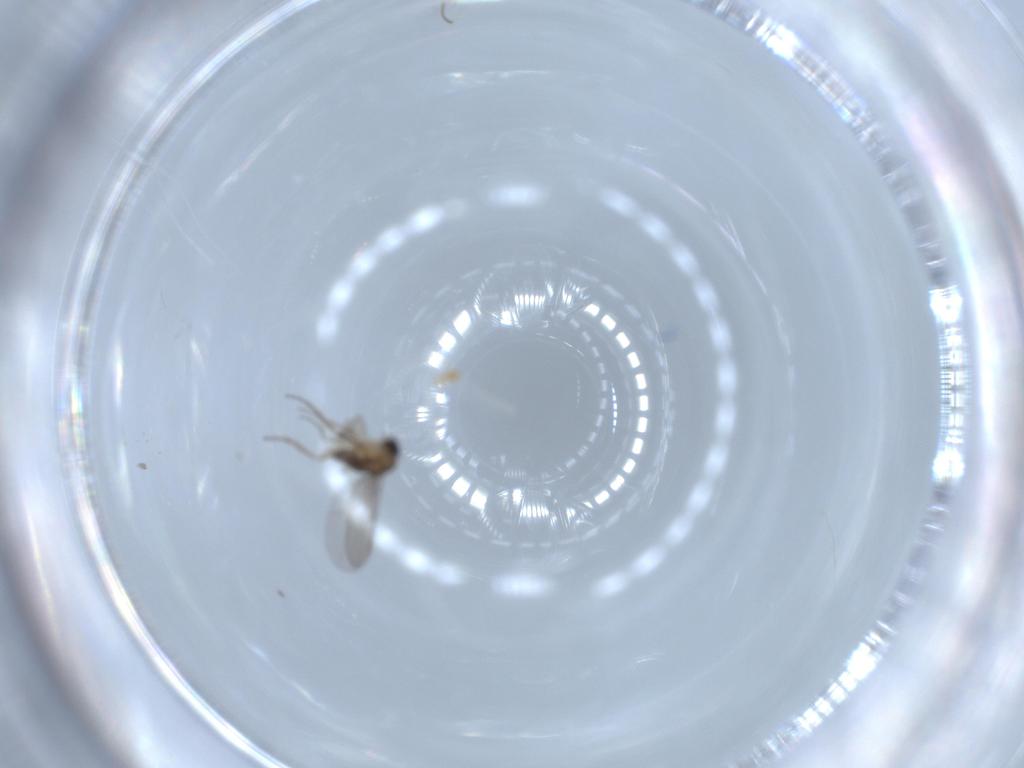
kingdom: Animalia
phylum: Arthropoda
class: Insecta
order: Diptera
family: Phoridae
